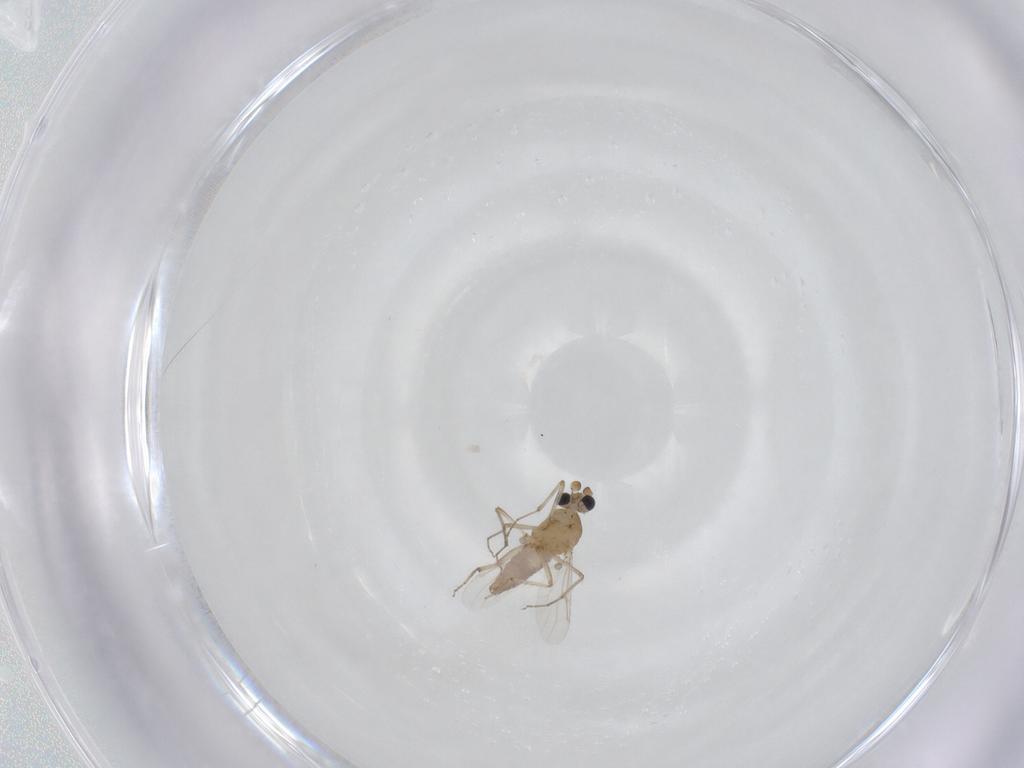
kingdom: Animalia
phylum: Arthropoda
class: Insecta
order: Diptera
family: Ceratopogonidae
